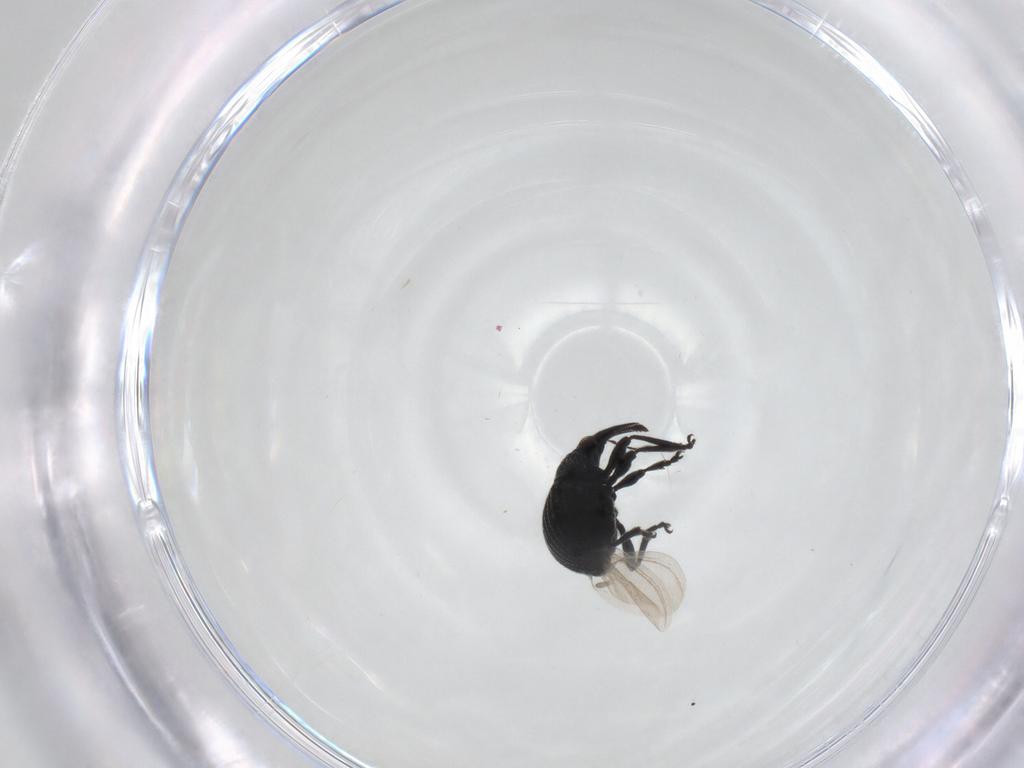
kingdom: Animalia
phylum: Arthropoda
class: Insecta
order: Coleoptera
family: Brentidae
